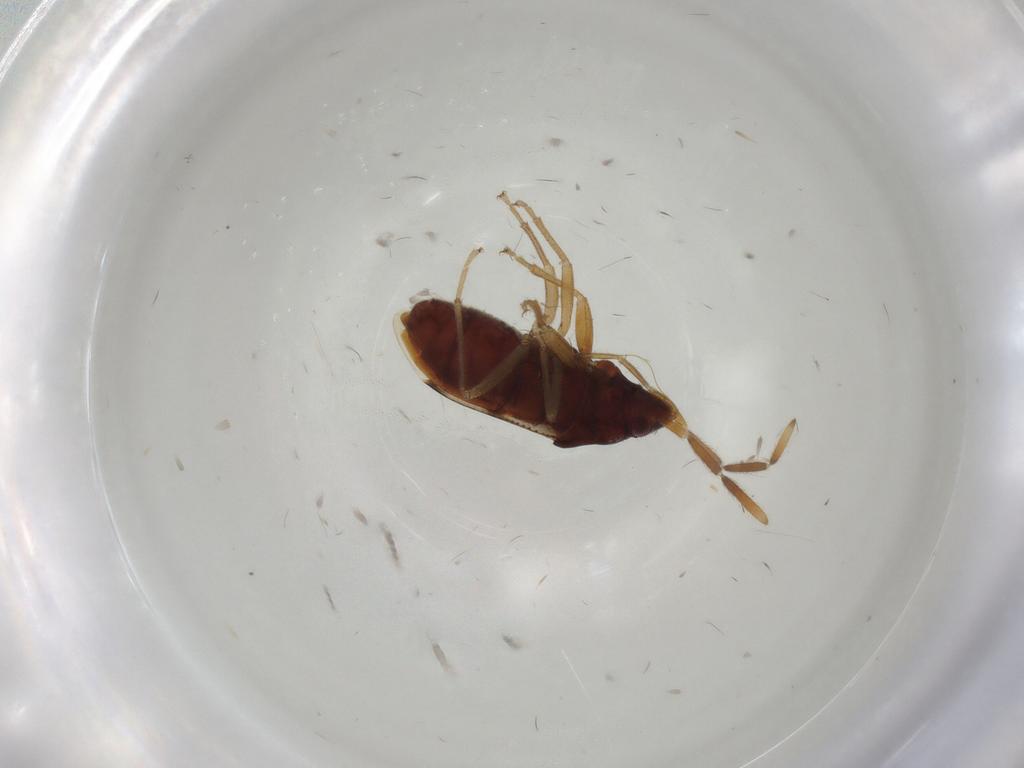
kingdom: Animalia
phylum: Arthropoda
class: Insecta
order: Hemiptera
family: Rhyparochromidae
